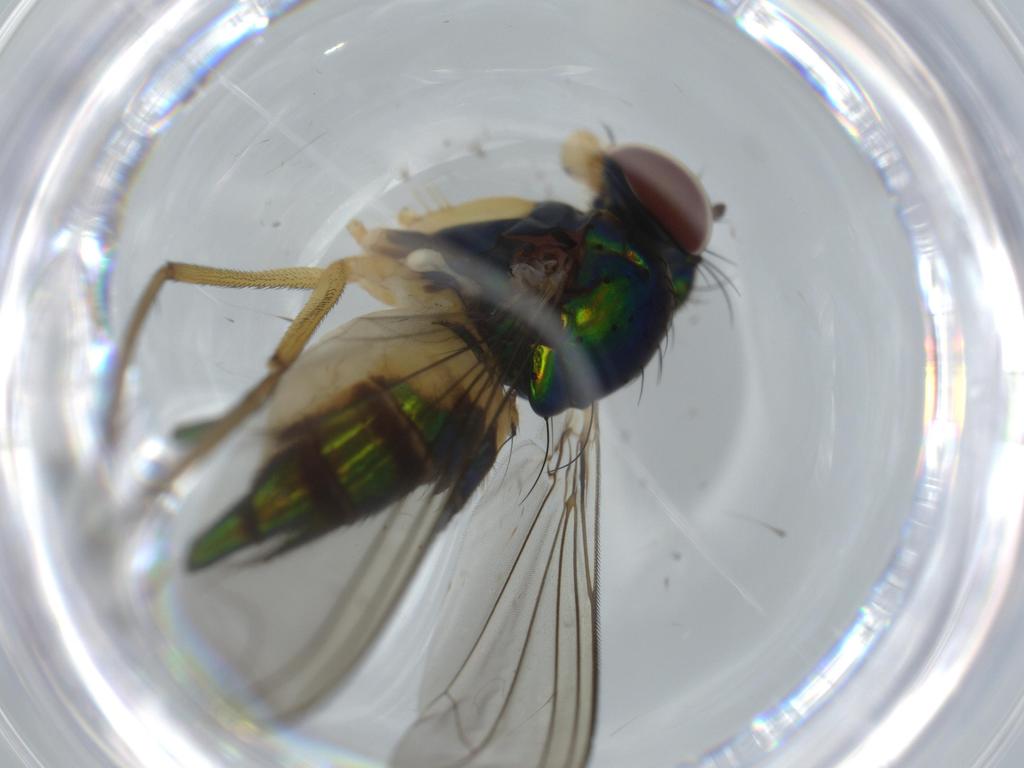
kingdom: Animalia
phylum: Arthropoda
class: Insecta
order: Diptera
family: Dolichopodidae
